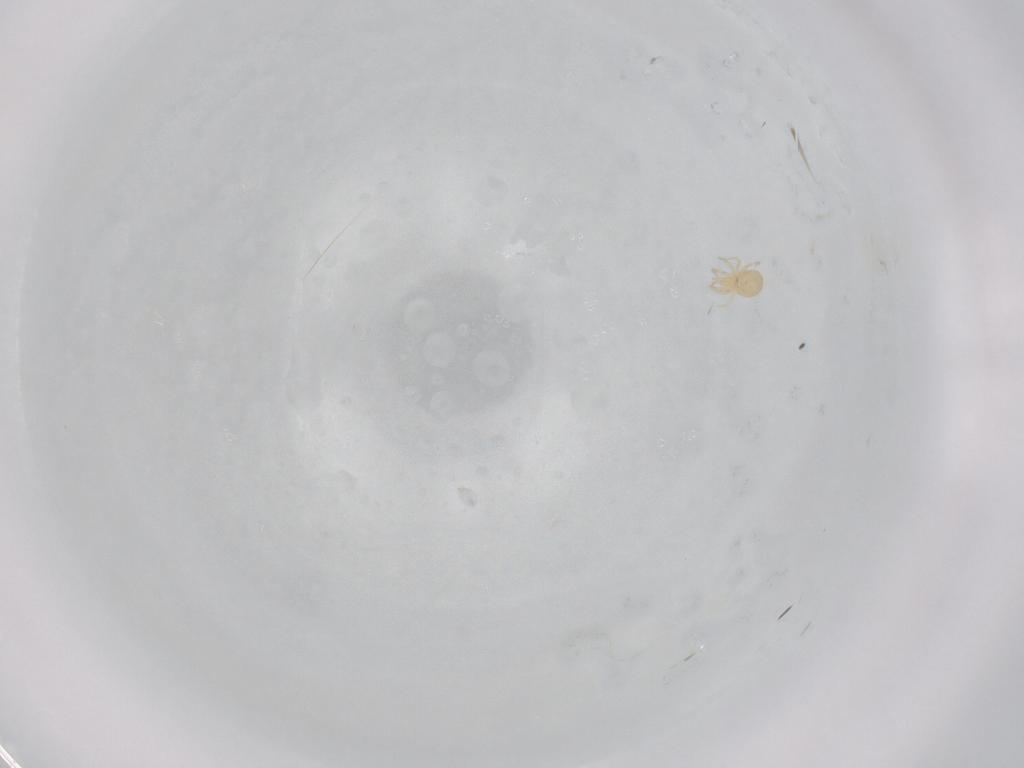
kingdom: Animalia
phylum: Arthropoda
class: Arachnida
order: Mesostigmata
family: Phytoseiidae
